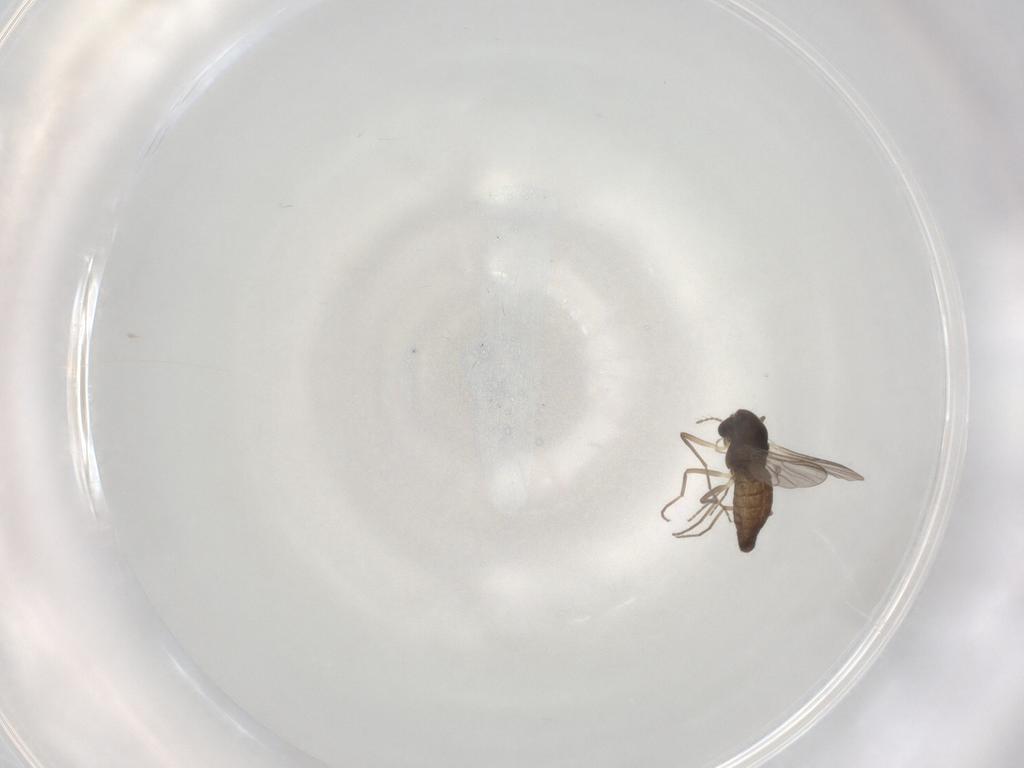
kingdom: Animalia
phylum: Arthropoda
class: Insecta
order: Diptera
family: Chironomidae
